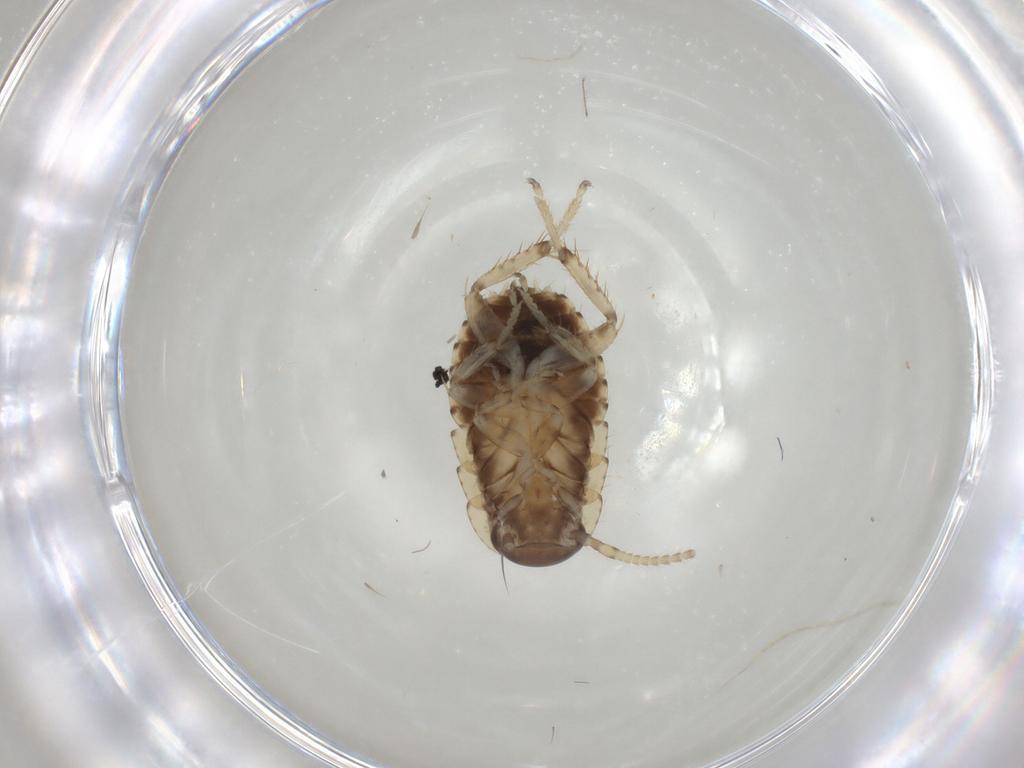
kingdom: Animalia
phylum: Arthropoda
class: Insecta
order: Blattodea
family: Blaberidae
